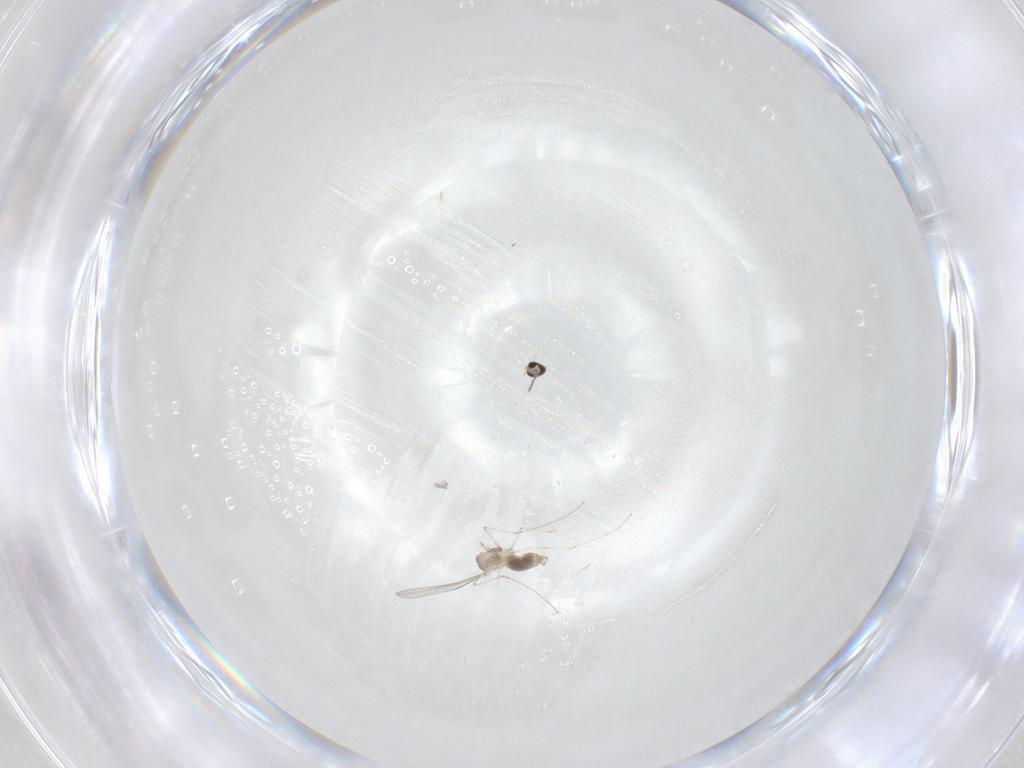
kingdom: Animalia
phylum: Arthropoda
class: Insecta
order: Diptera
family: Cecidomyiidae
